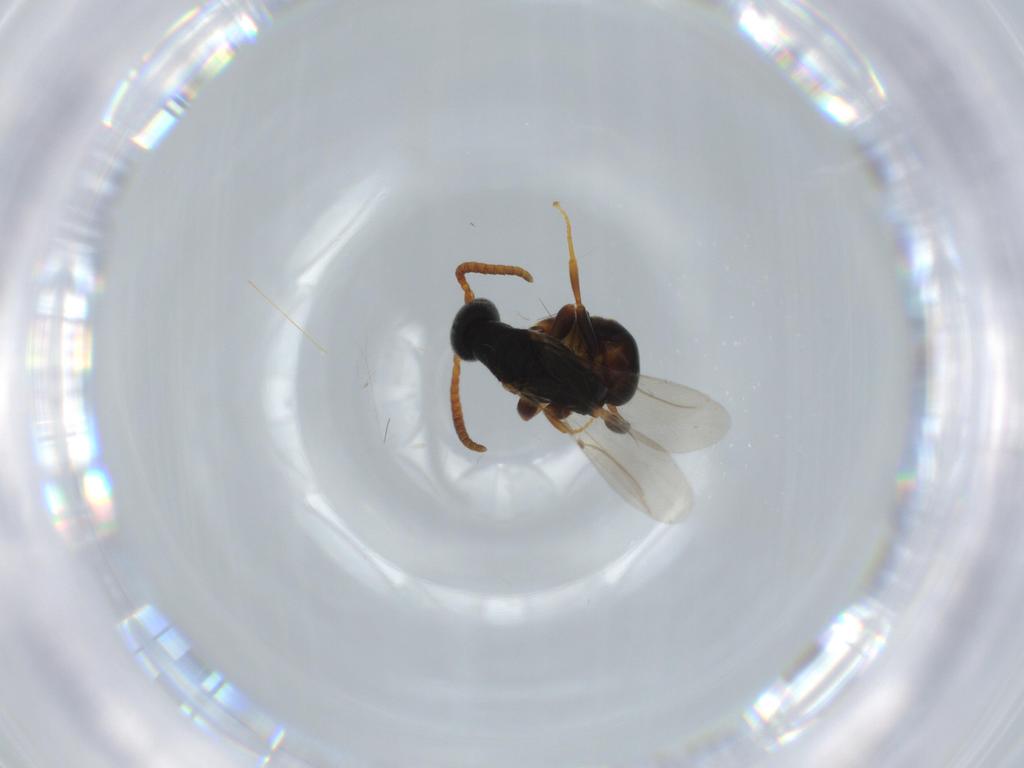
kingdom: Animalia
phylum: Arthropoda
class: Insecta
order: Hymenoptera
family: Bethylidae
